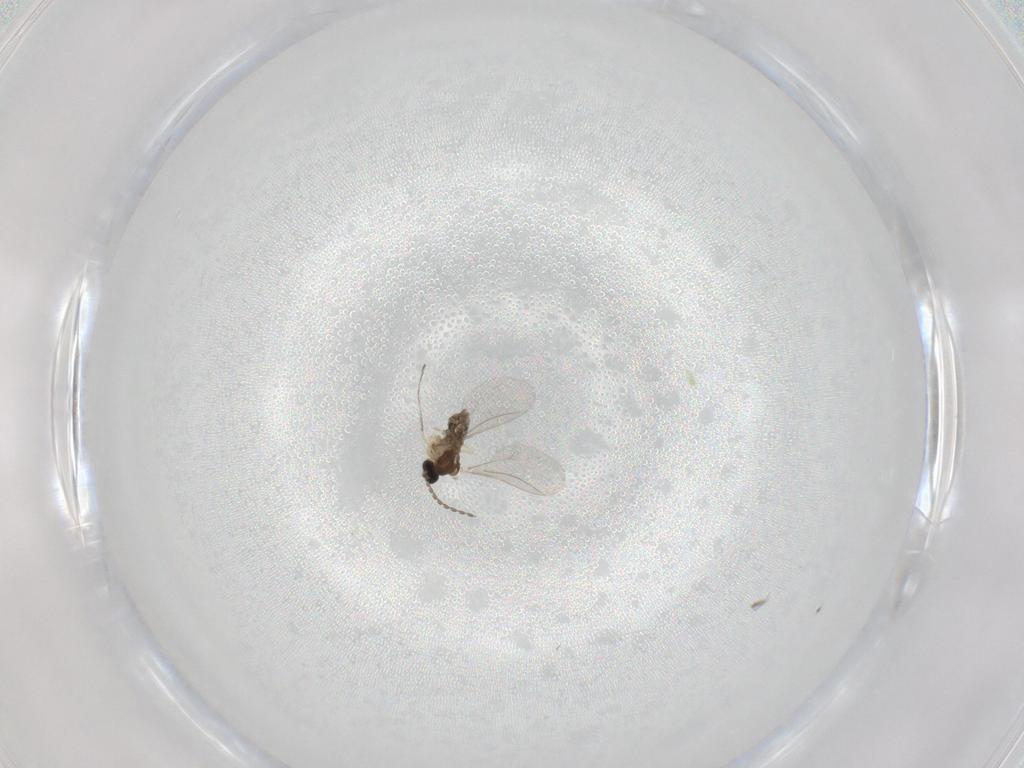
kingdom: Animalia
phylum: Arthropoda
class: Insecta
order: Diptera
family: Cecidomyiidae
